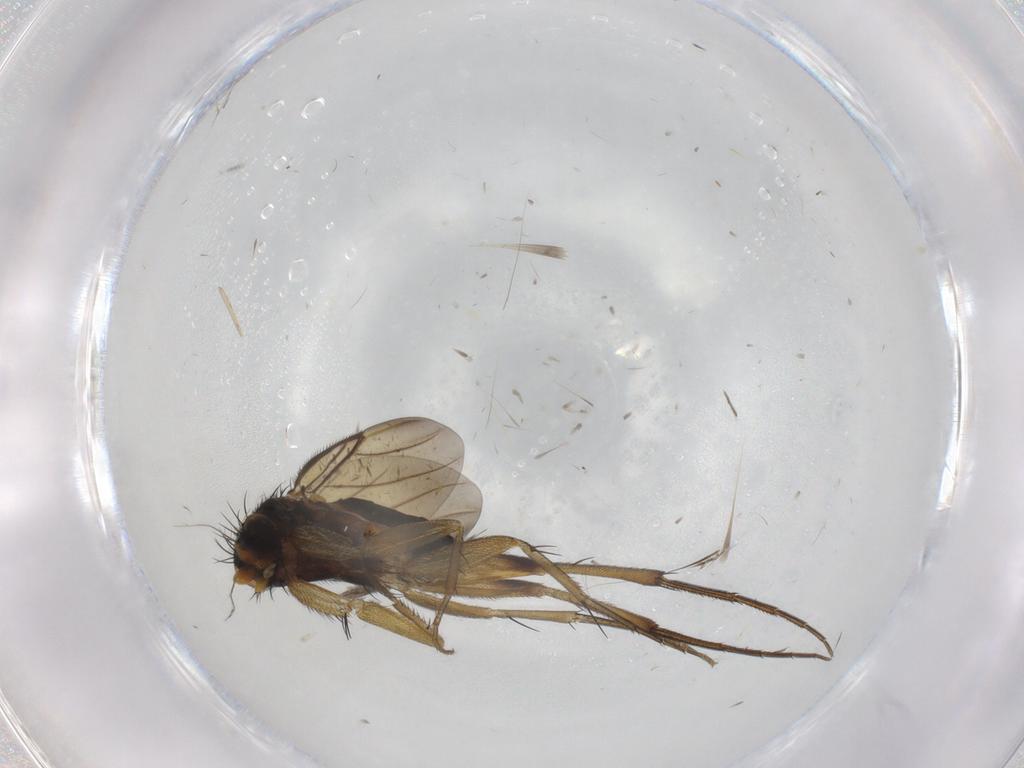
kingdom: Animalia
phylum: Arthropoda
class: Insecta
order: Diptera
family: Phoridae
